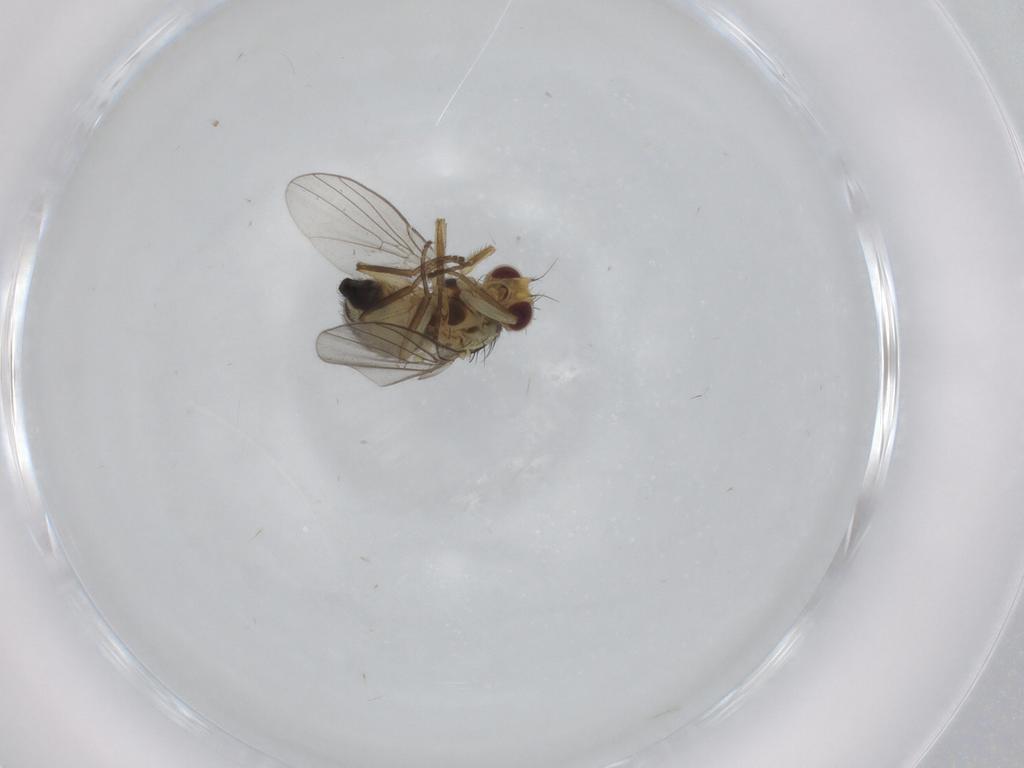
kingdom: Animalia
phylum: Arthropoda
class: Insecta
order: Diptera
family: Agromyzidae
